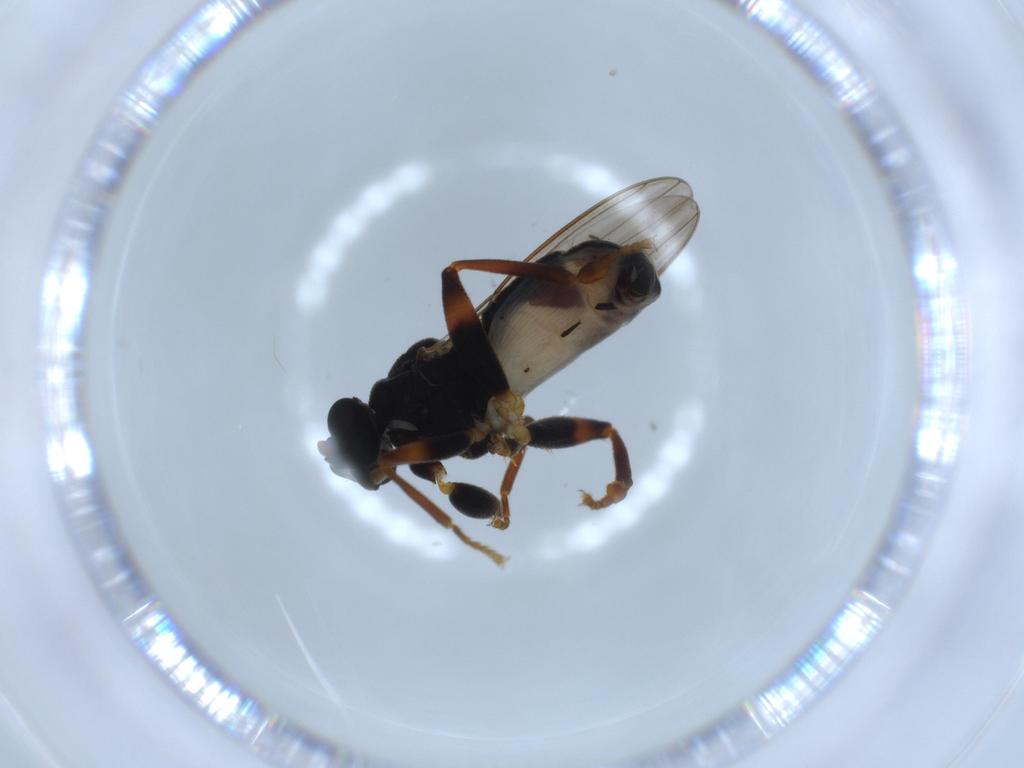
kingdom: Animalia
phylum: Arthropoda
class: Insecta
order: Diptera
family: Sphaeroceridae
